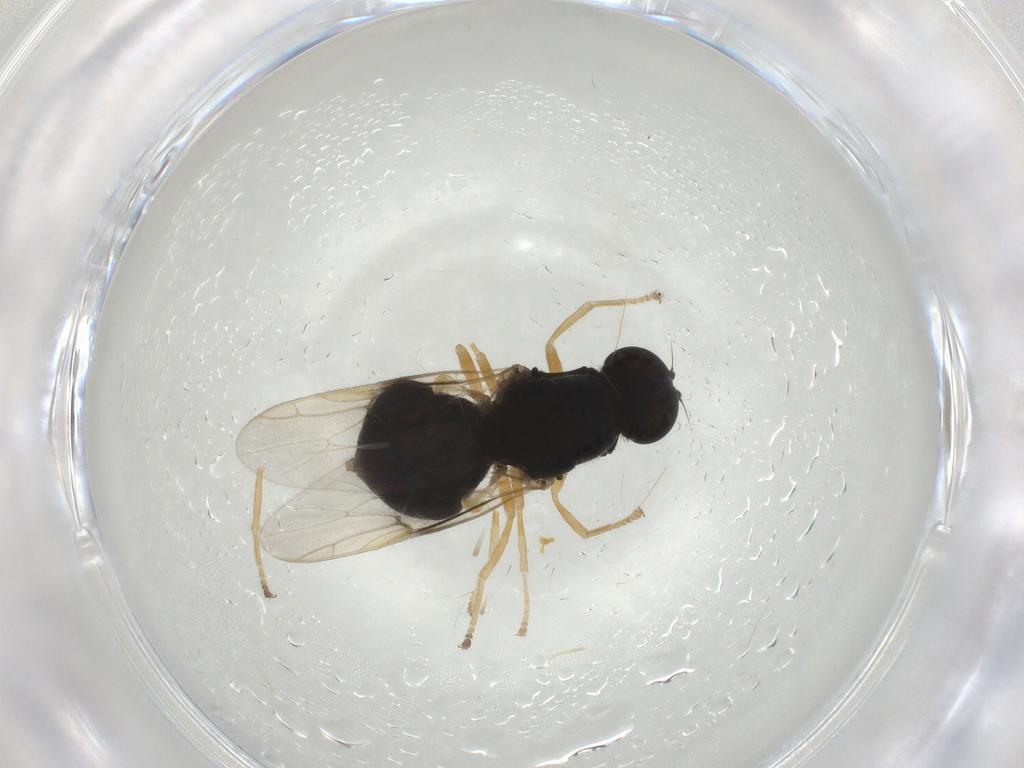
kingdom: Animalia
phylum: Arthropoda
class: Insecta
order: Diptera
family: Stratiomyidae
